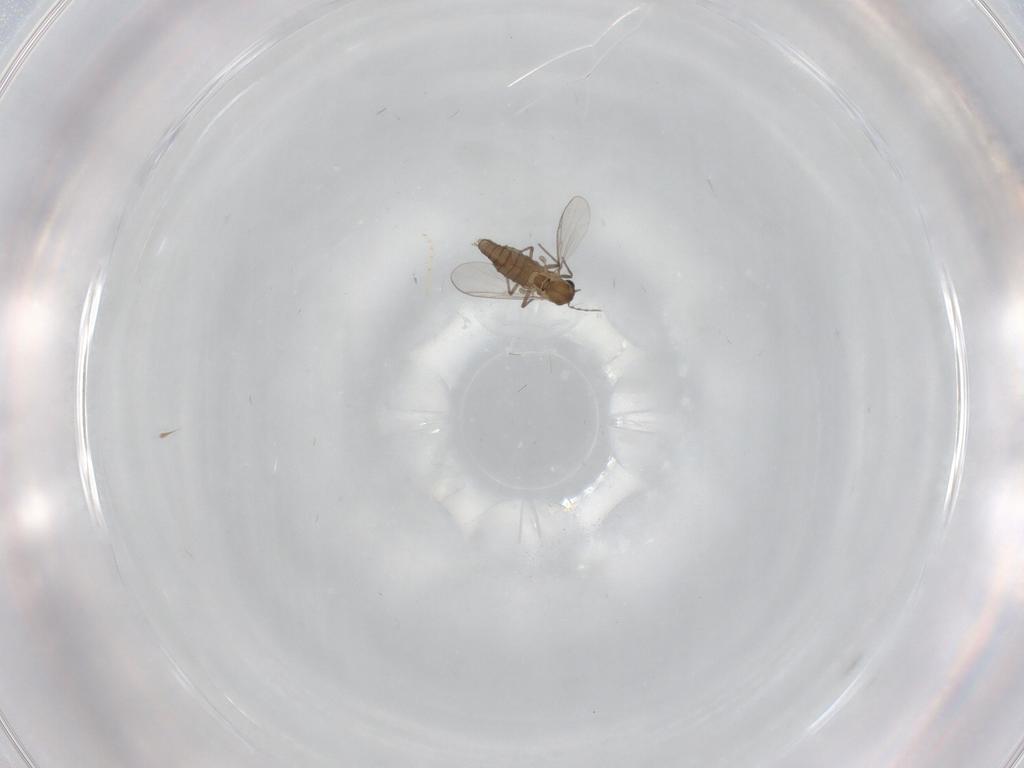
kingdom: Animalia
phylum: Arthropoda
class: Insecta
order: Diptera
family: Chironomidae
